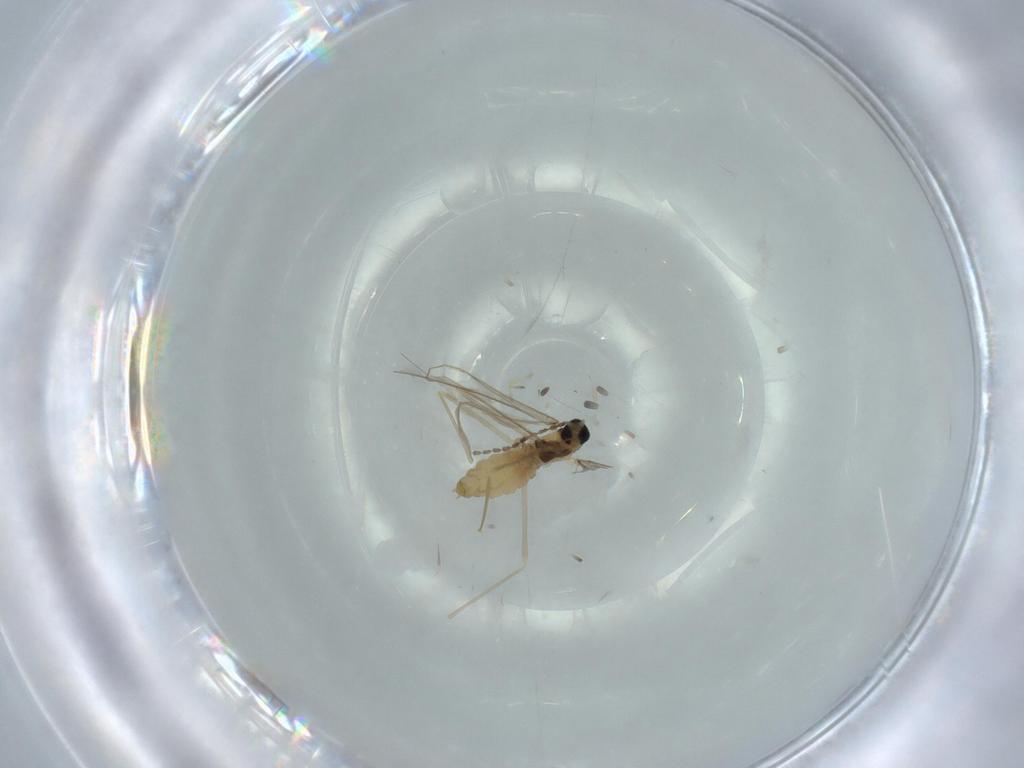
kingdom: Animalia
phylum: Arthropoda
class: Insecta
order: Diptera
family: Cecidomyiidae
